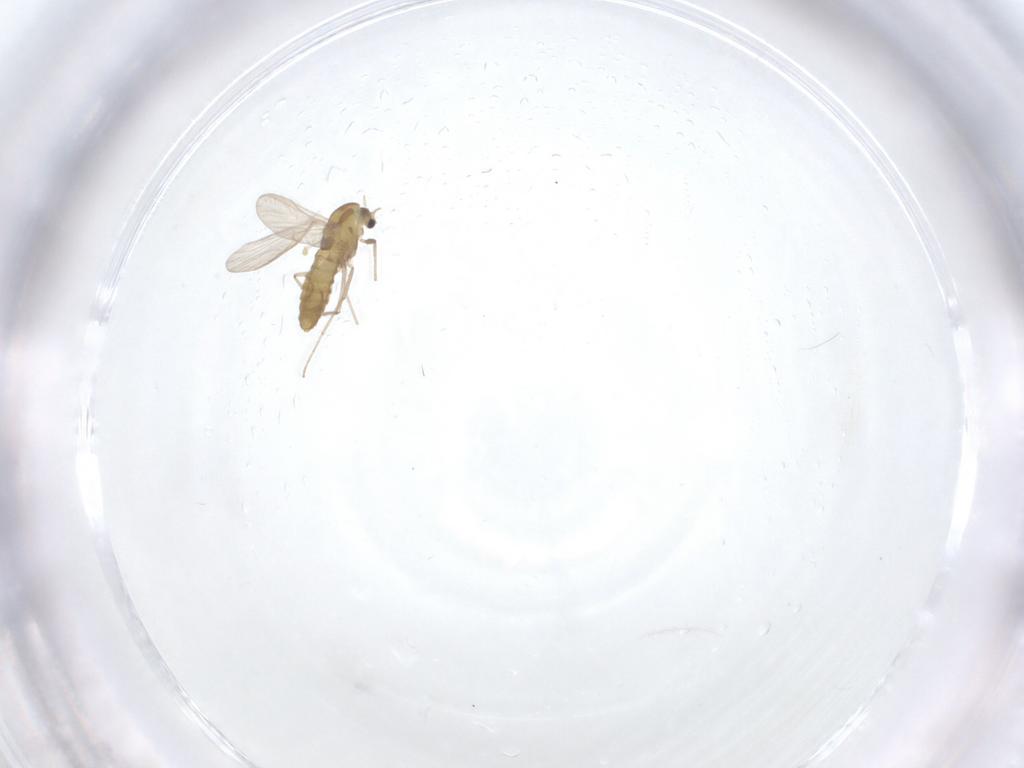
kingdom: Animalia
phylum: Arthropoda
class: Insecta
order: Diptera
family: Chironomidae
